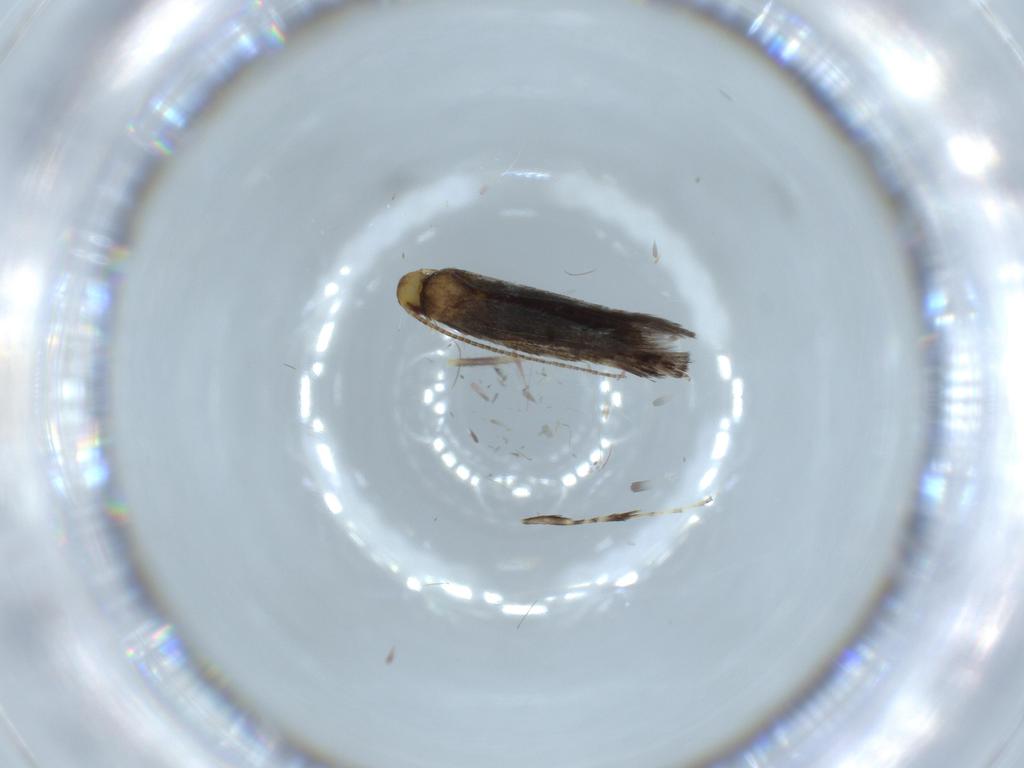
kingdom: Animalia
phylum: Arthropoda
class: Insecta
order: Lepidoptera
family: Gracillariidae
